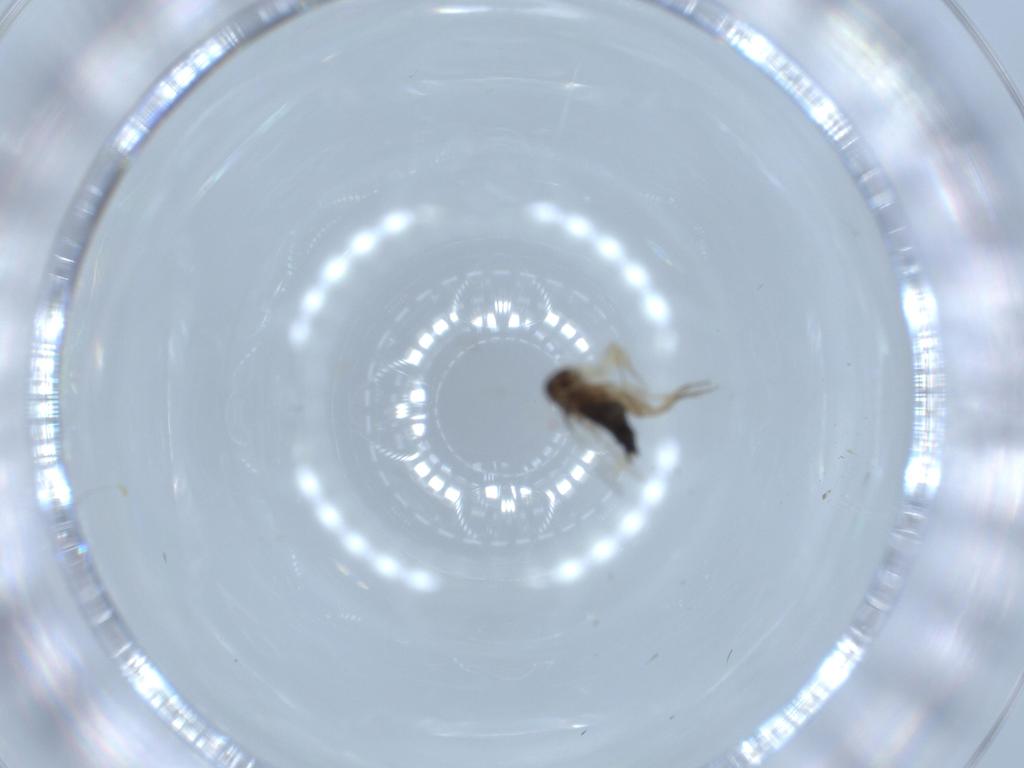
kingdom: Animalia
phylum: Arthropoda
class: Insecta
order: Diptera
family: Phoridae
